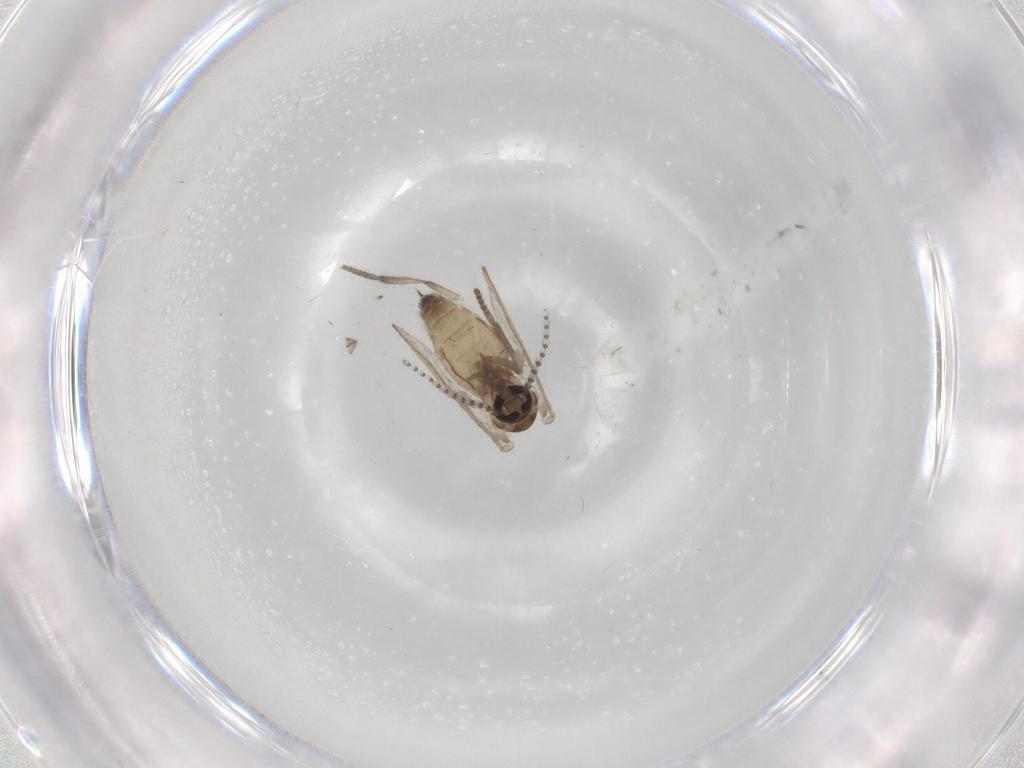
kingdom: Animalia
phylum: Arthropoda
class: Insecta
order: Diptera
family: Psychodidae
